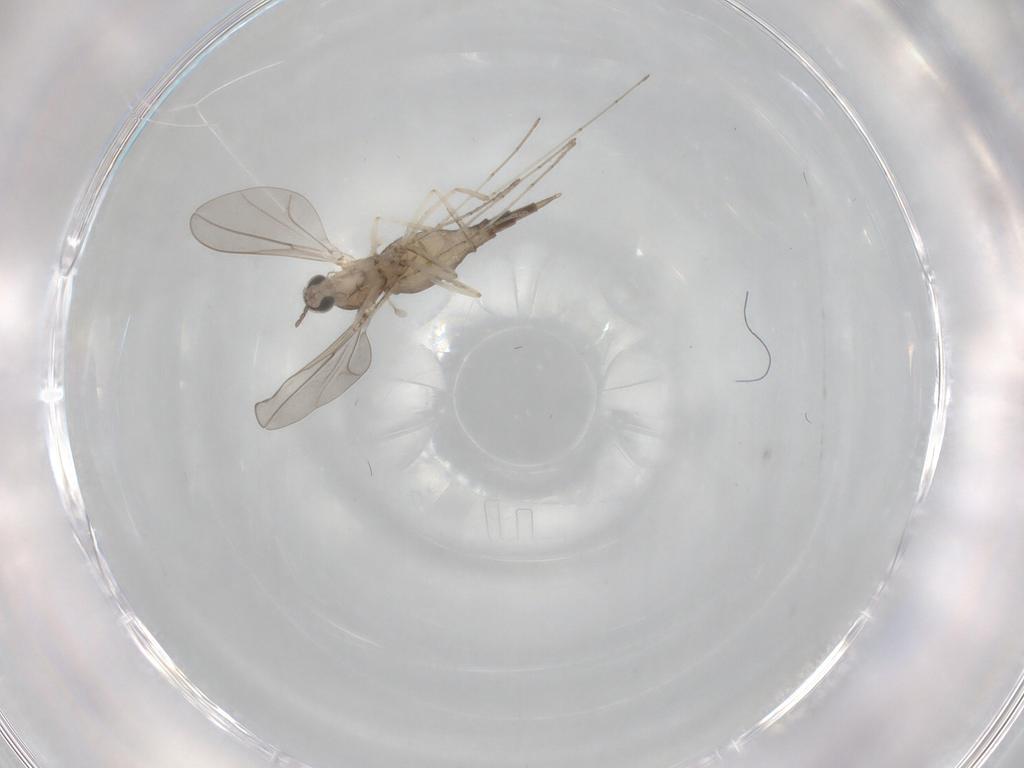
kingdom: Animalia
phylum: Arthropoda
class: Insecta
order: Diptera
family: Cecidomyiidae
